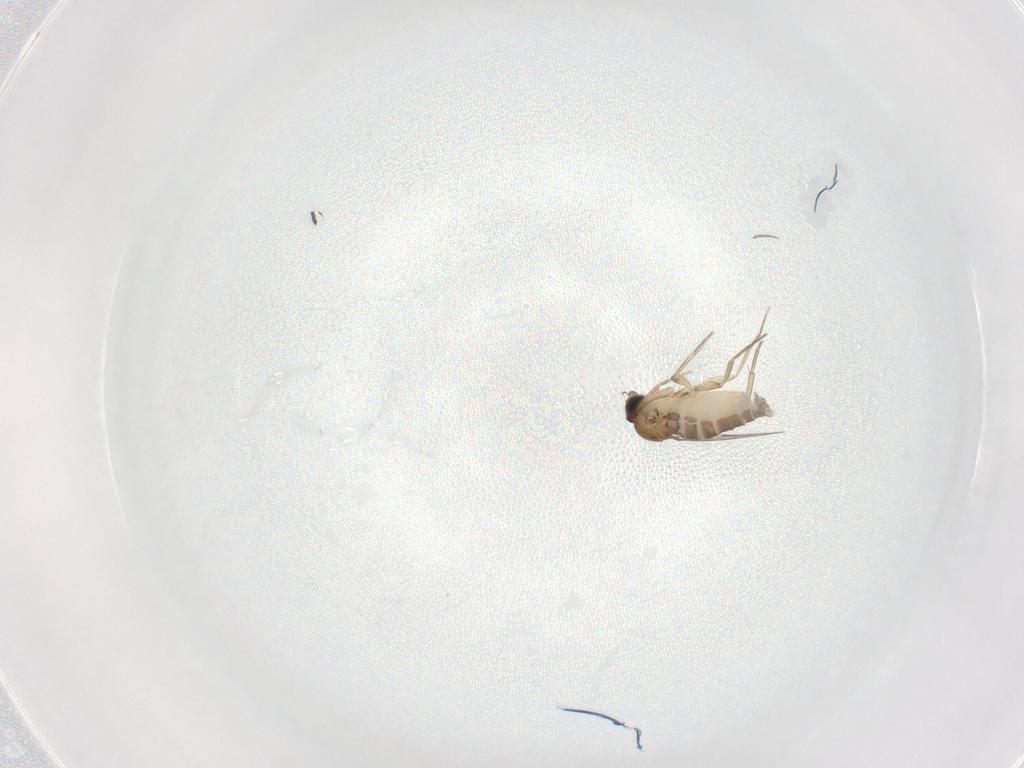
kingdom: Animalia
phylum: Arthropoda
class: Insecta
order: Diptera
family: Phoridae
